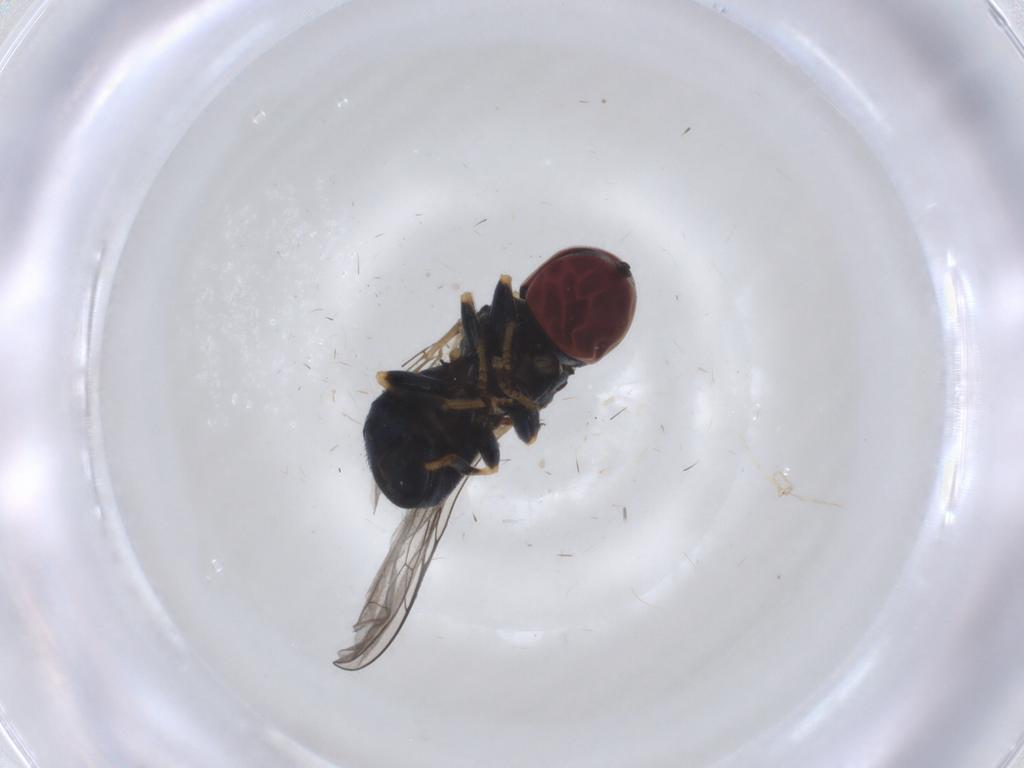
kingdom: Animalia
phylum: Arthropoda
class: Insecta
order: Diptera
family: Pipunculidae
